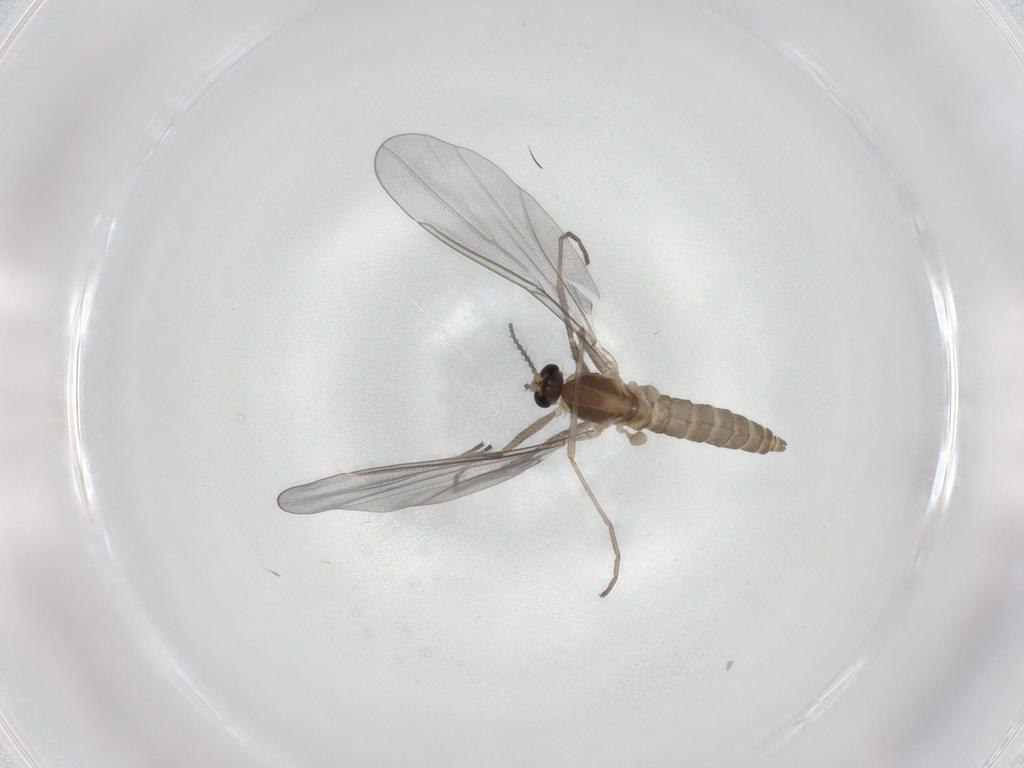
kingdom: Animalia
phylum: Arthropoda
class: Insecta
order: Diptera
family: Cecidomyiidae
